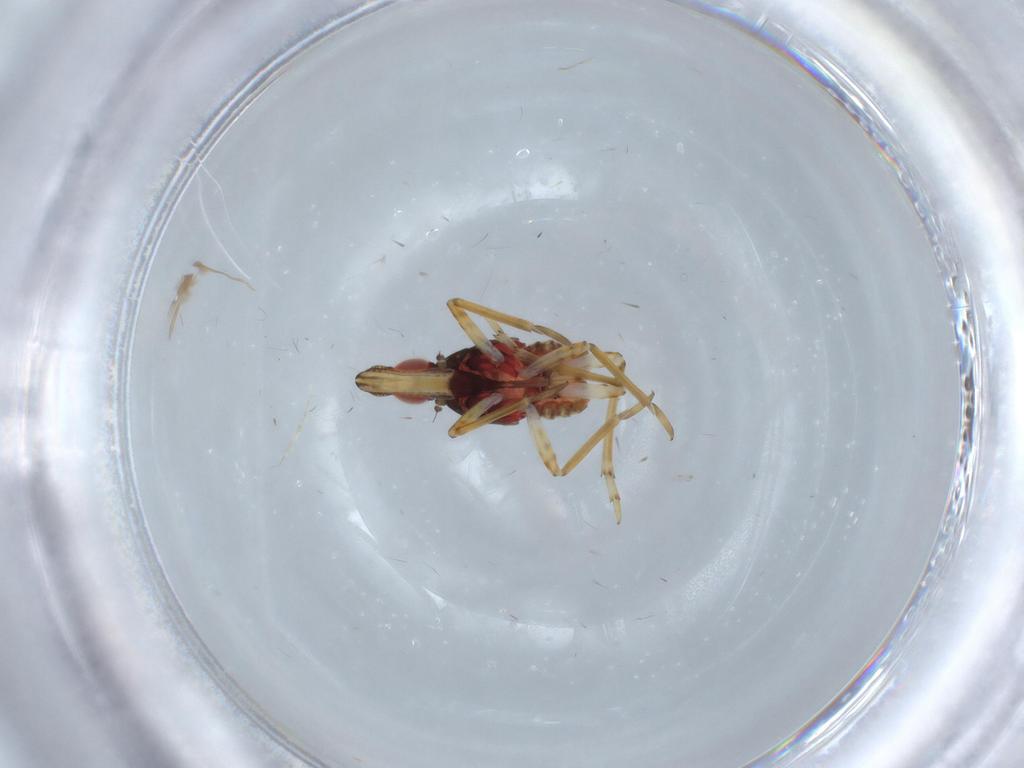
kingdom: Animalia
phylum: Arthropoda
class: Insecta
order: Hemiptera
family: Fulgoroidea_incertae_sedis
